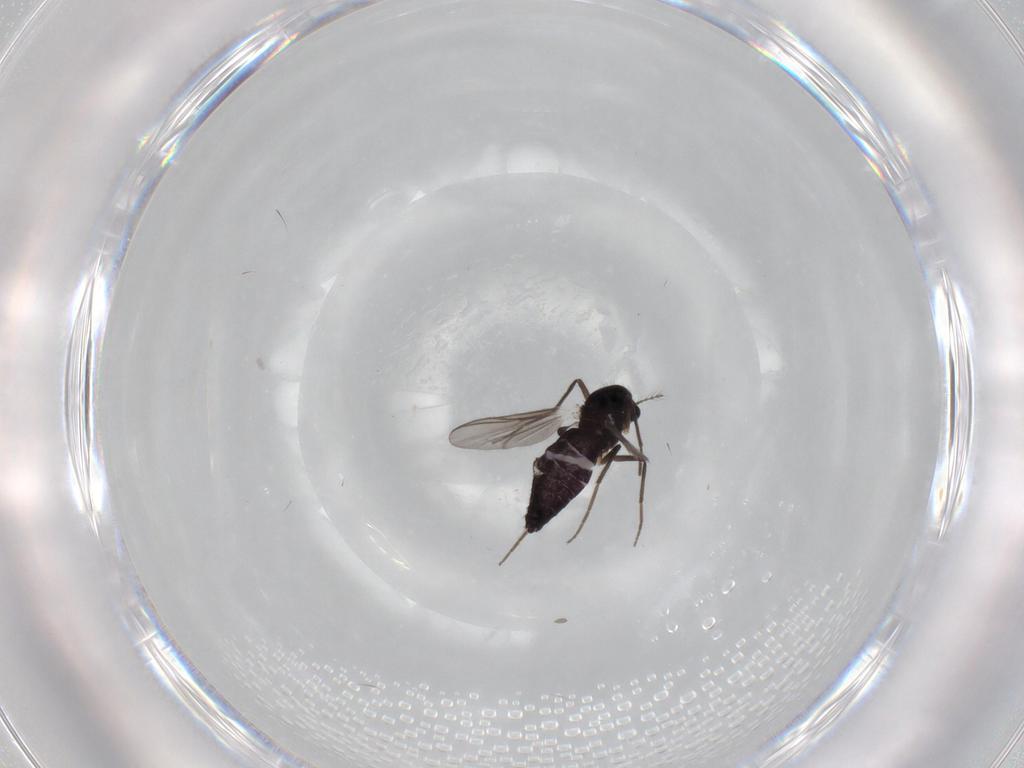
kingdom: Animalia
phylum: Arthropoda
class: Insecta
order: Diptera
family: Chironomidae
